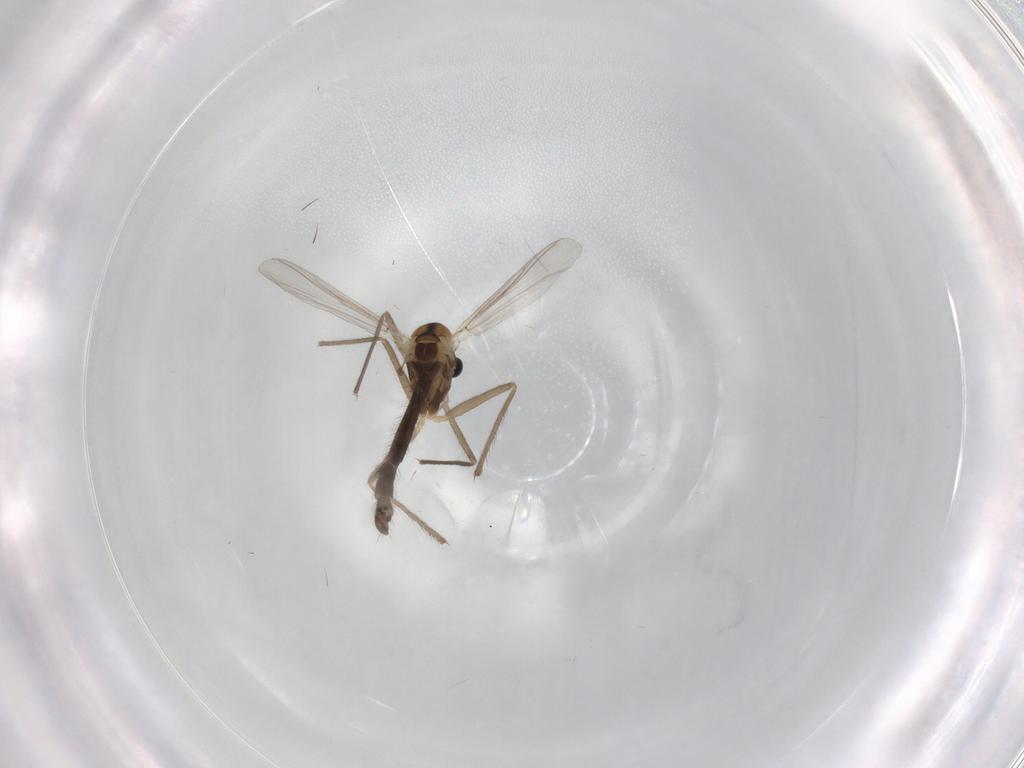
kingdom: Animalia
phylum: Arthropoda
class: Insecta
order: Diptera
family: Chironomidae
